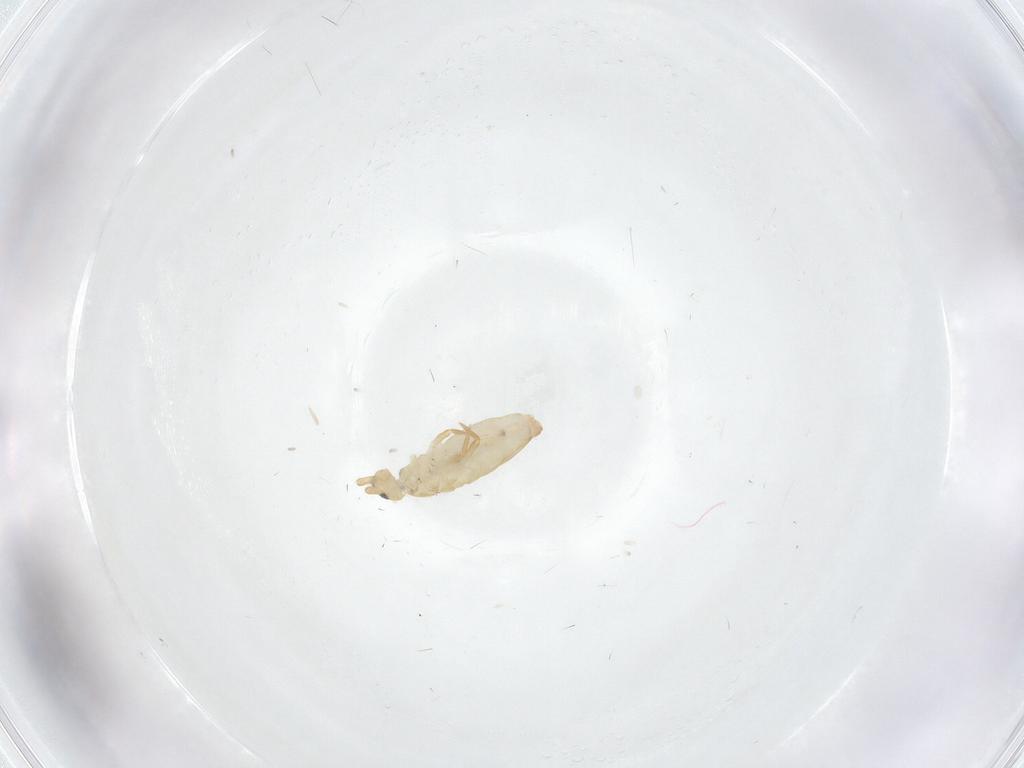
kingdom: Animalia
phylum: Arthropoda
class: Collembola
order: Entomobryomorpha
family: Entomobryidae
